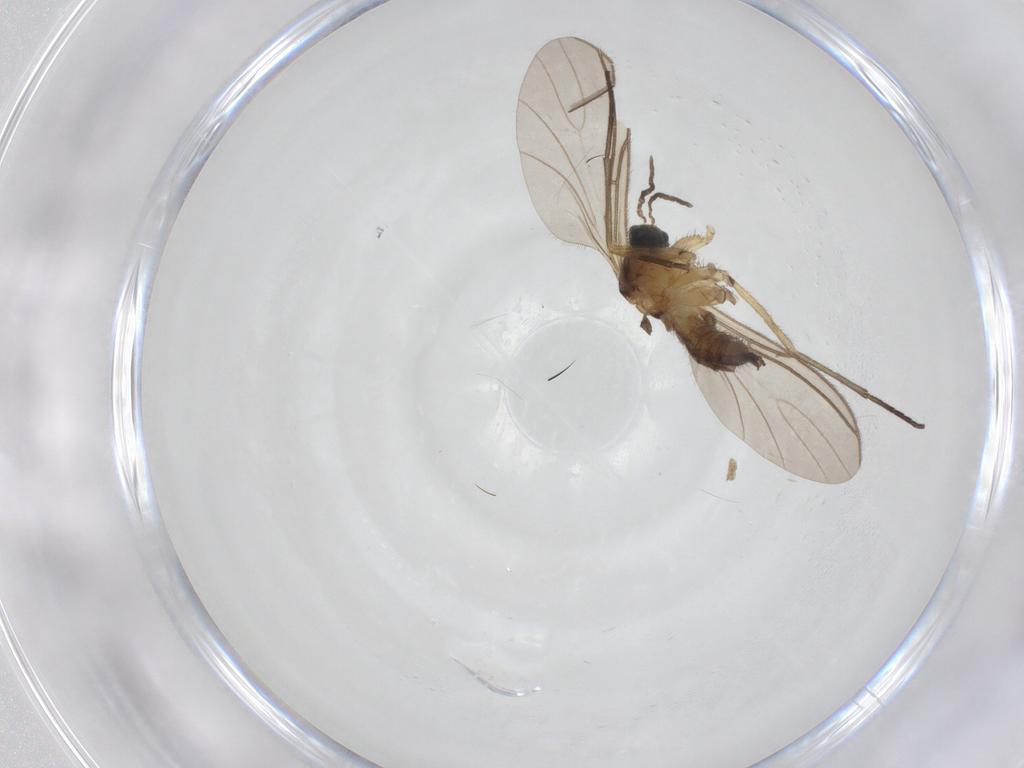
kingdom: Animalia
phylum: Arthropoda
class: Insecta
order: Diptera
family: Sciaridae
